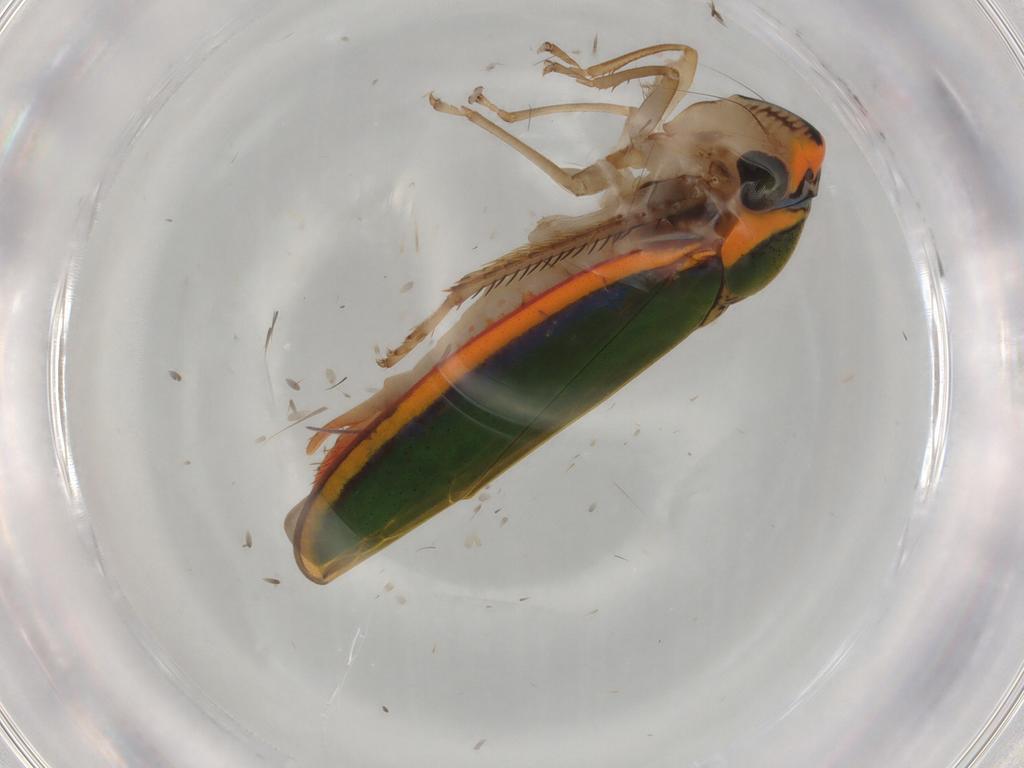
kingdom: Animalia
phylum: Arthropoda
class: Insecta
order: Hemiptera
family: Cicadellidae
